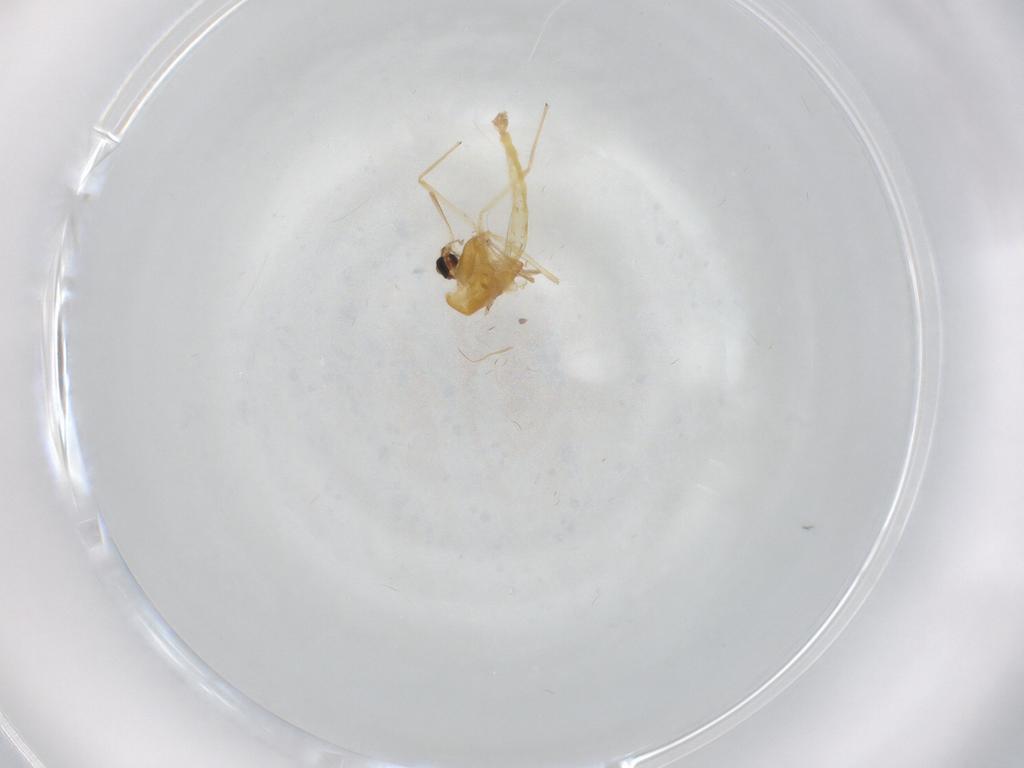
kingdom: Animalia
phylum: Arthropoda
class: Insecta
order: Diptera
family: Chironomidae
